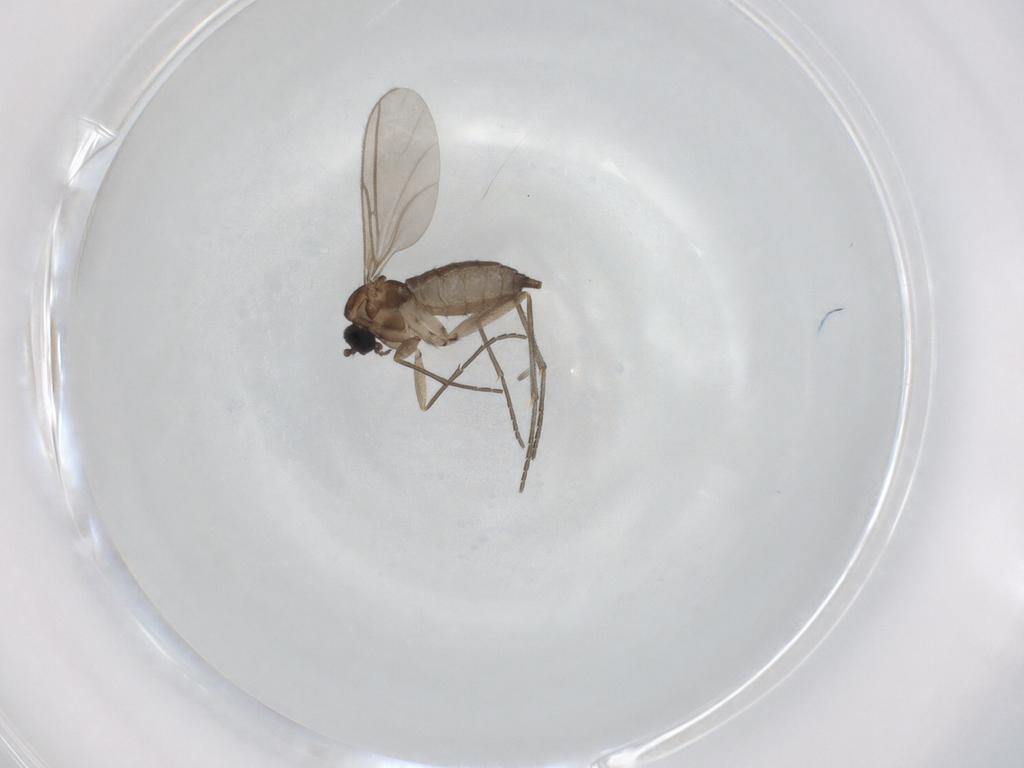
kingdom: Animalia
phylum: Arthropoda
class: Insecta
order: Diptera
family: Sciaridae
